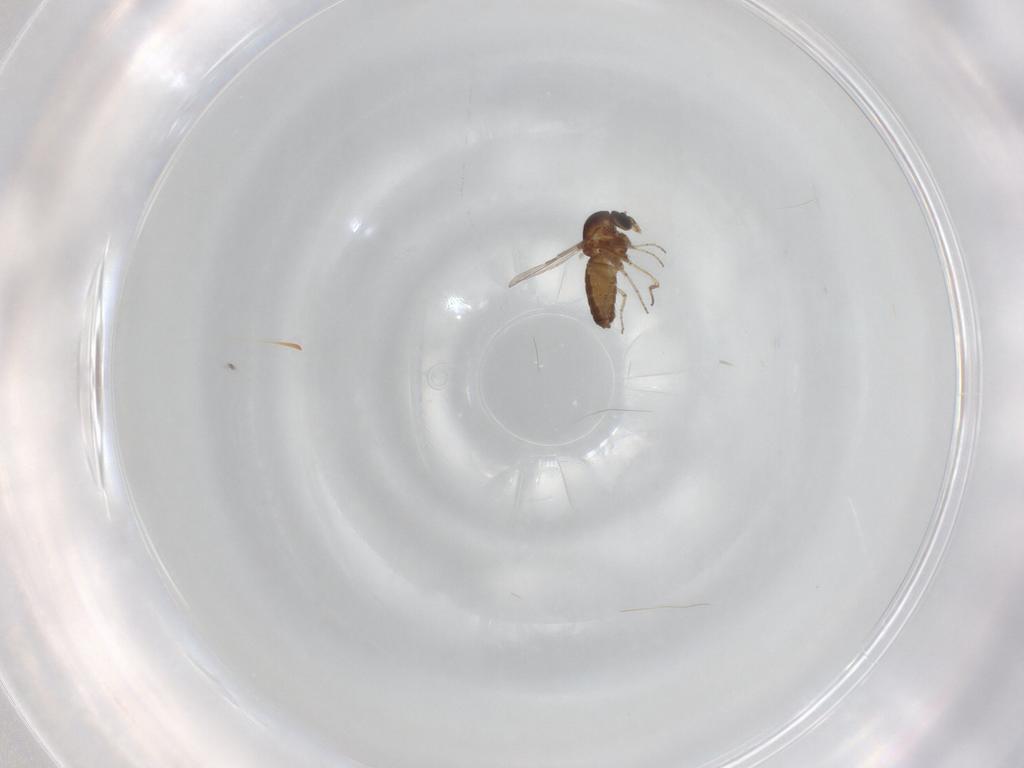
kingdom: Animalia
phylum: Arthropoda
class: Insecta
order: Diptera
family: Ceratopogonidae
